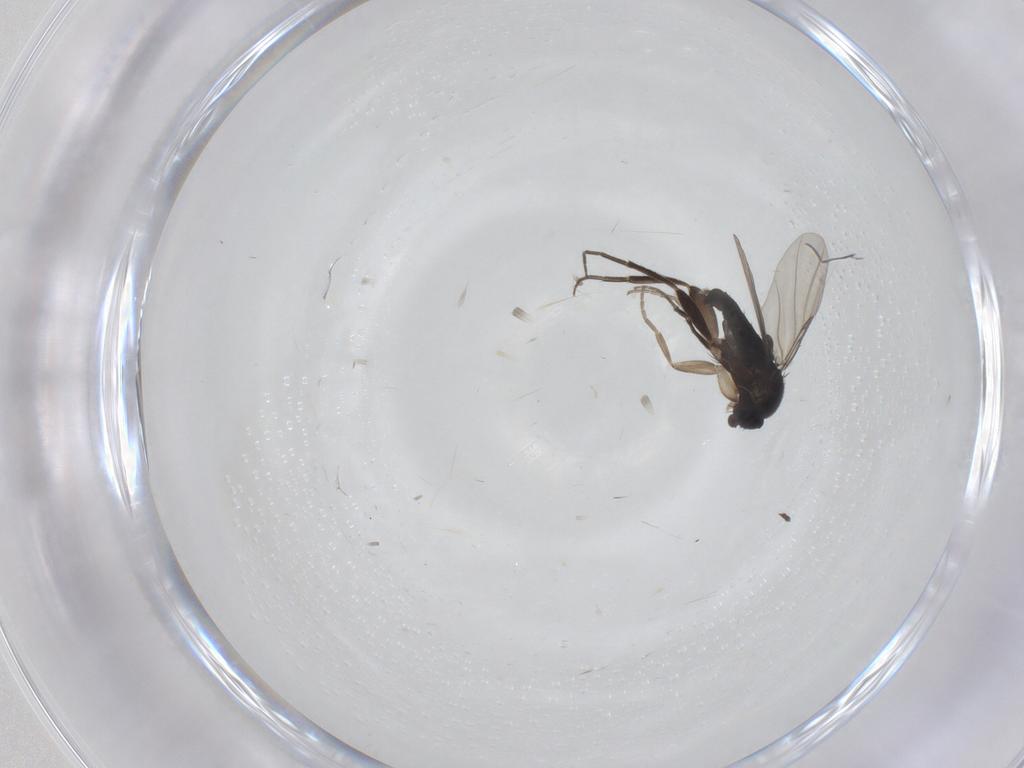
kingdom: Animalia
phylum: Arthropoda
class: Insecta
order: Diptera
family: Phoridae
